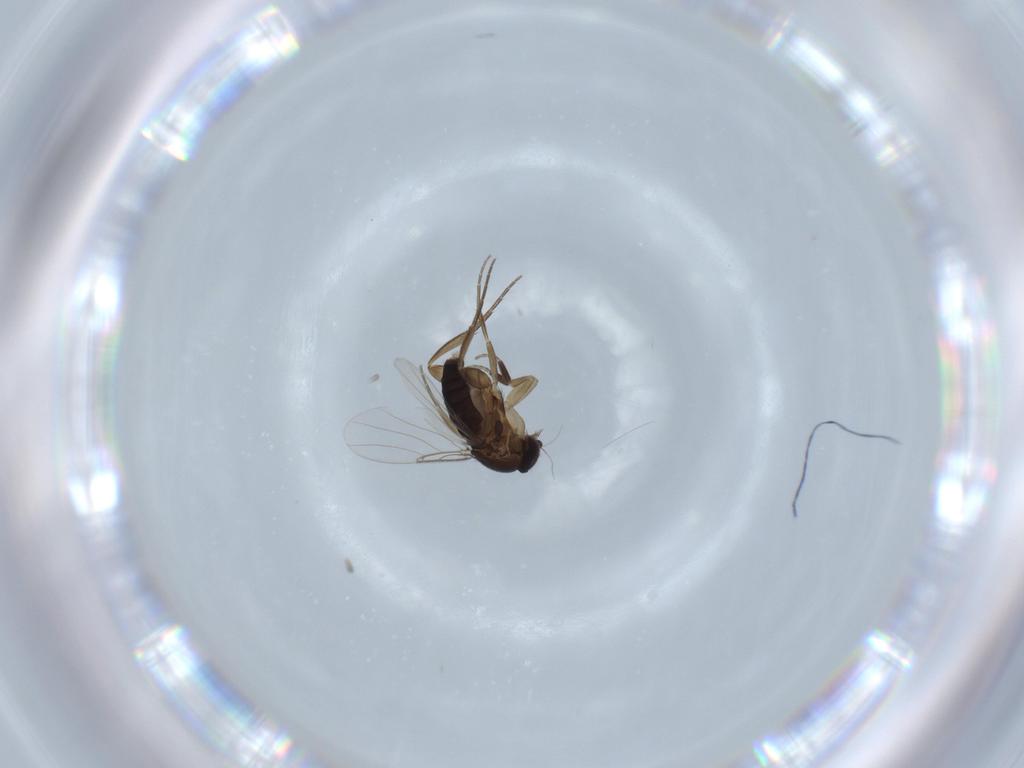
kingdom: Animalia
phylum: Arthropoda
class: Insecta
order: Diptera
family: Phoridae
